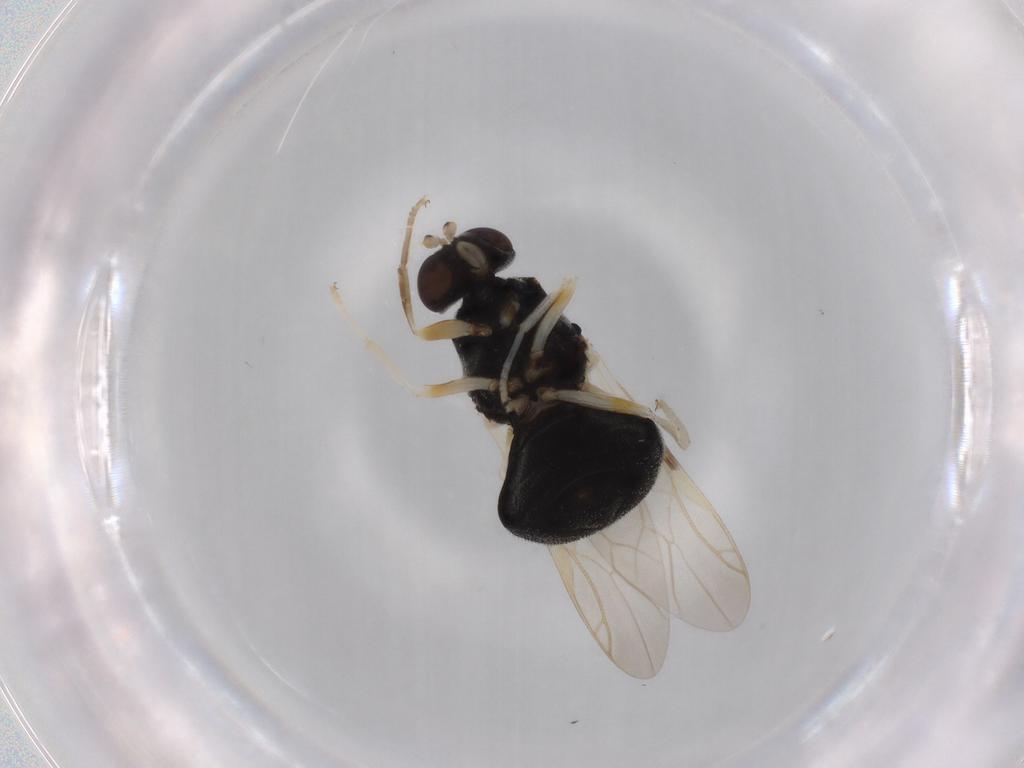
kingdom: Animalia
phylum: Arthropoda
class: Insecta
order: Diptera
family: Stratiomyidae
